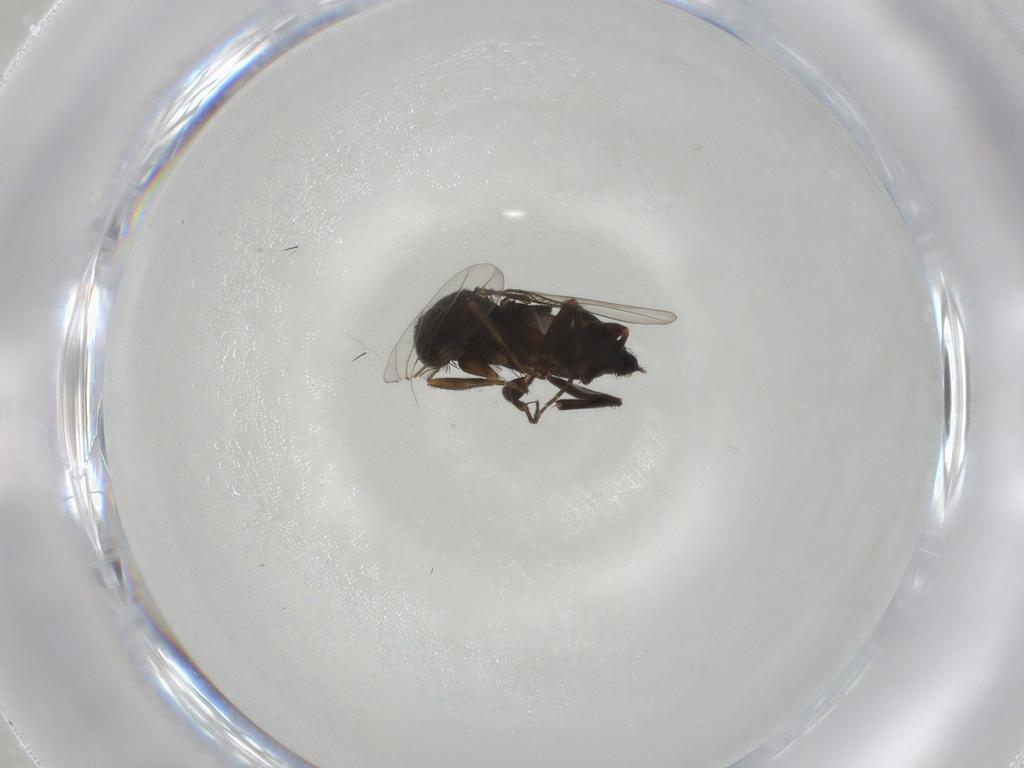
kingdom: Animalia
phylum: Arthropoda
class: Insecta
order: Diptera
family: Phoridae
